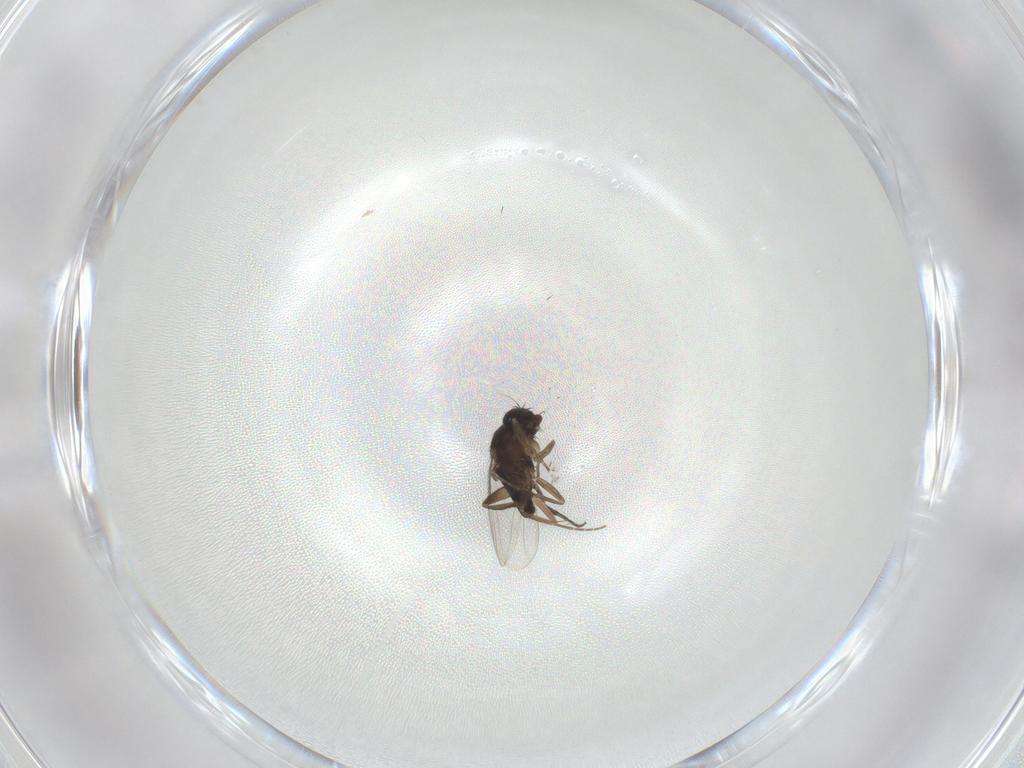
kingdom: Animalia
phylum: Arthropoda
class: Insecta
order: Diptera
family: Phoridae
